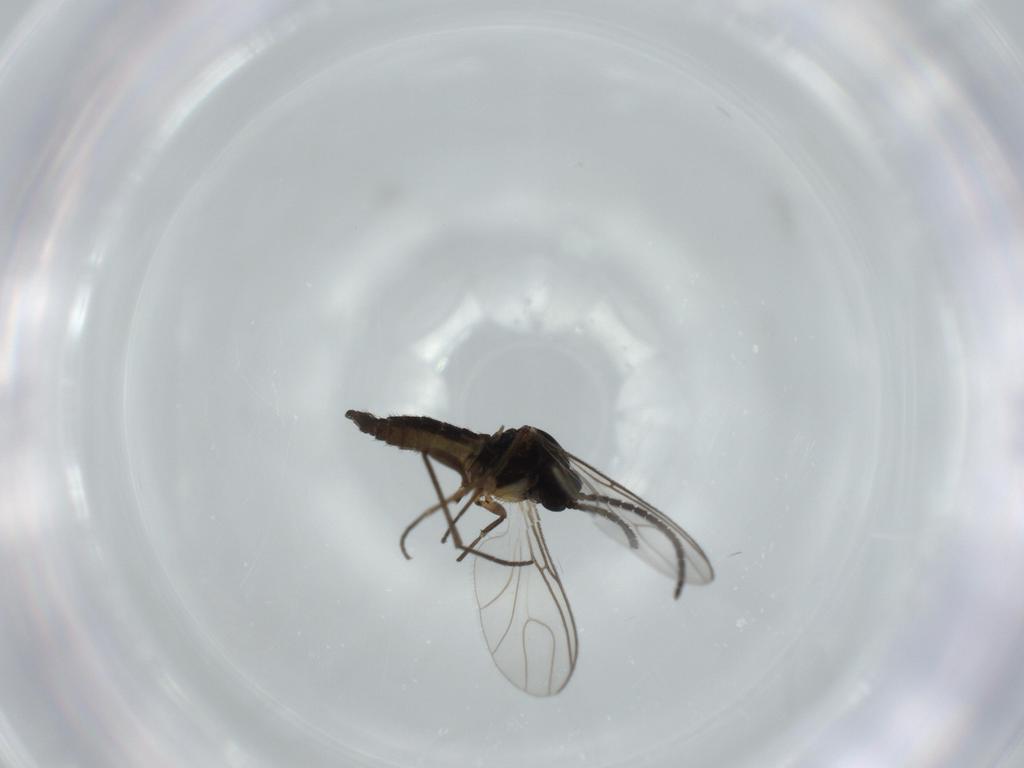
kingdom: Animalia
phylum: Arthropoda
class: Insecta
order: Diptera
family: Sciaridae
